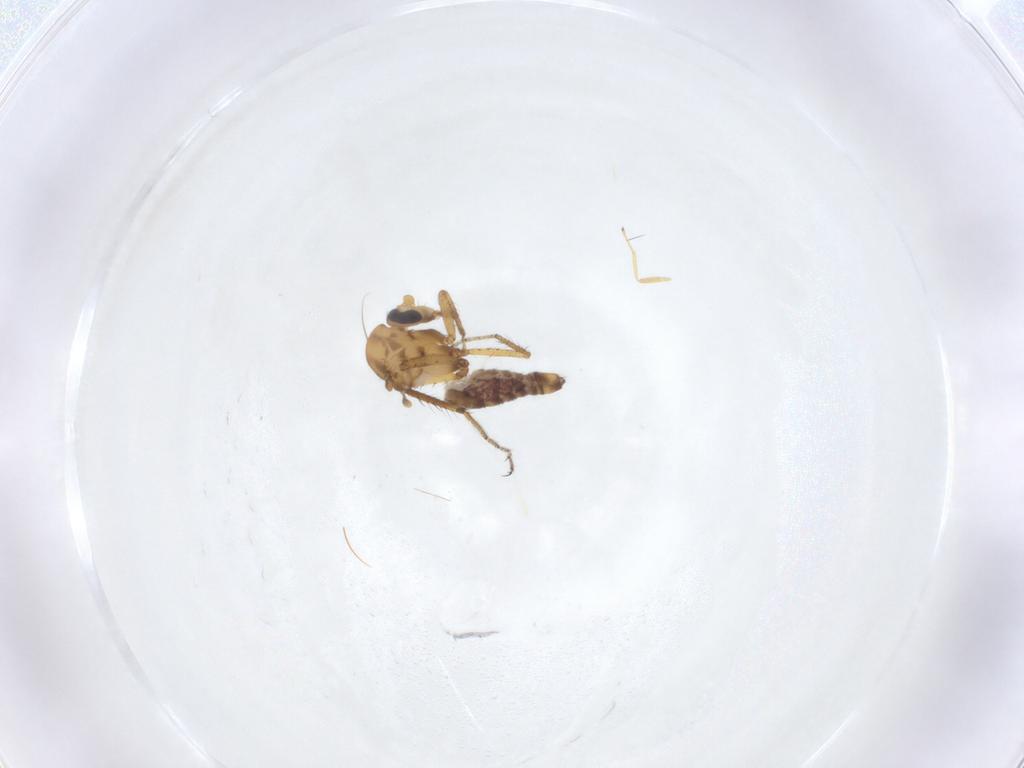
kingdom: Animalia
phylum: Arthropoda
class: Insecta
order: Diptera
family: Ceratopogonidae
